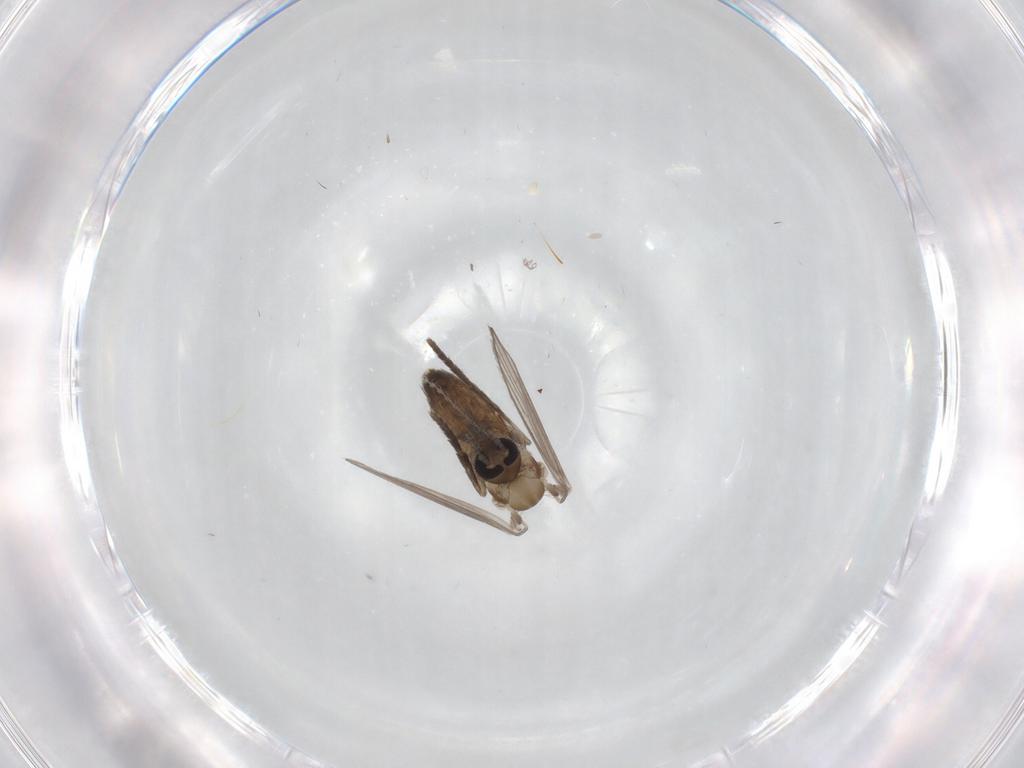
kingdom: Animalia
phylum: Arthropoda
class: Insecta
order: Diptera
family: Psychodidae
